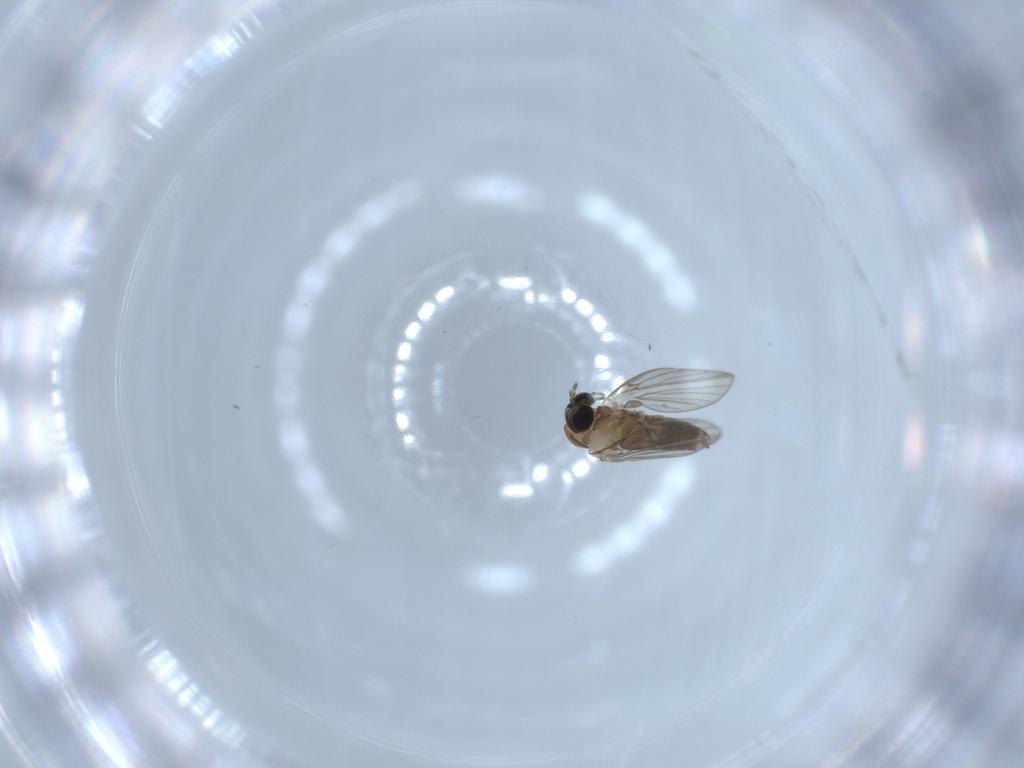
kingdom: Animalia
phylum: Arthropoda
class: Insecta
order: Diptera
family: Psychodidae
